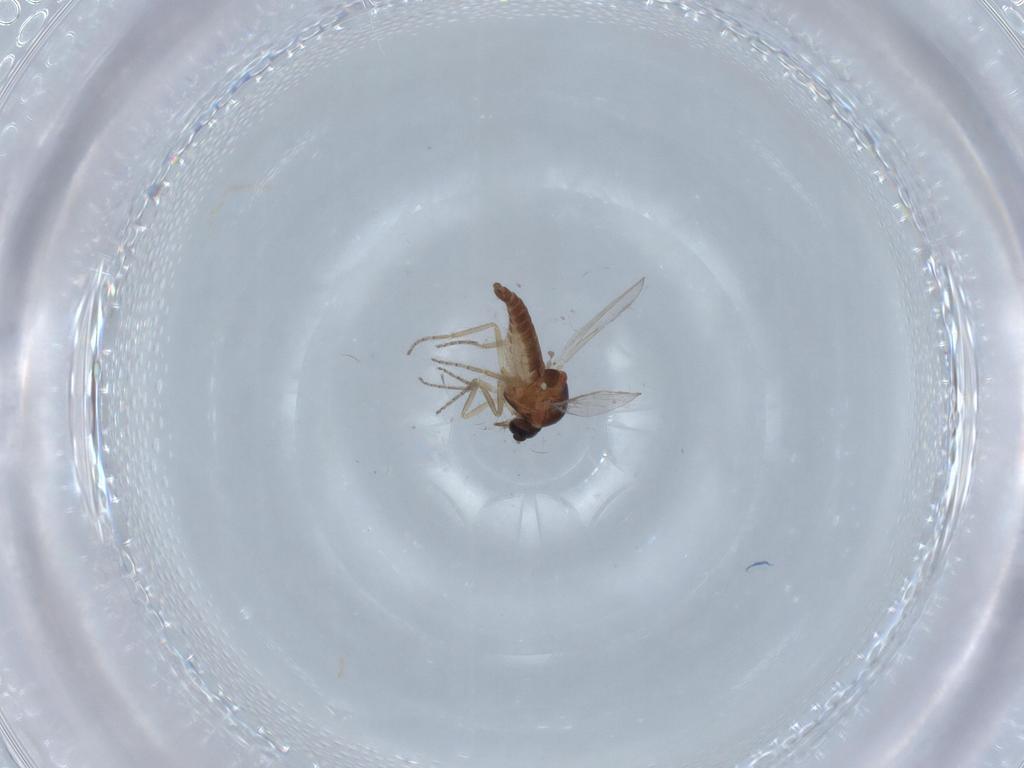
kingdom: Animalia
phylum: Arthropoda
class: Insecta
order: Diptera
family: Ceratopogonidae
